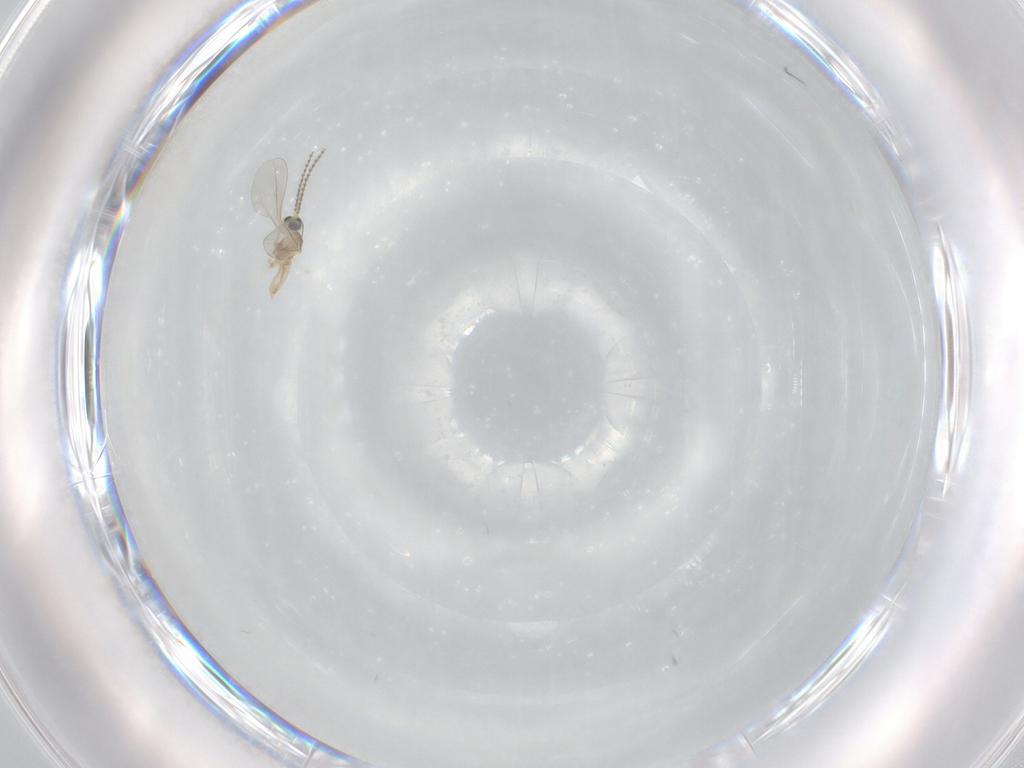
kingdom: Animalia
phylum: Arthropoda
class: Insecta
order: Diptera
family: Cecidomyiidae
